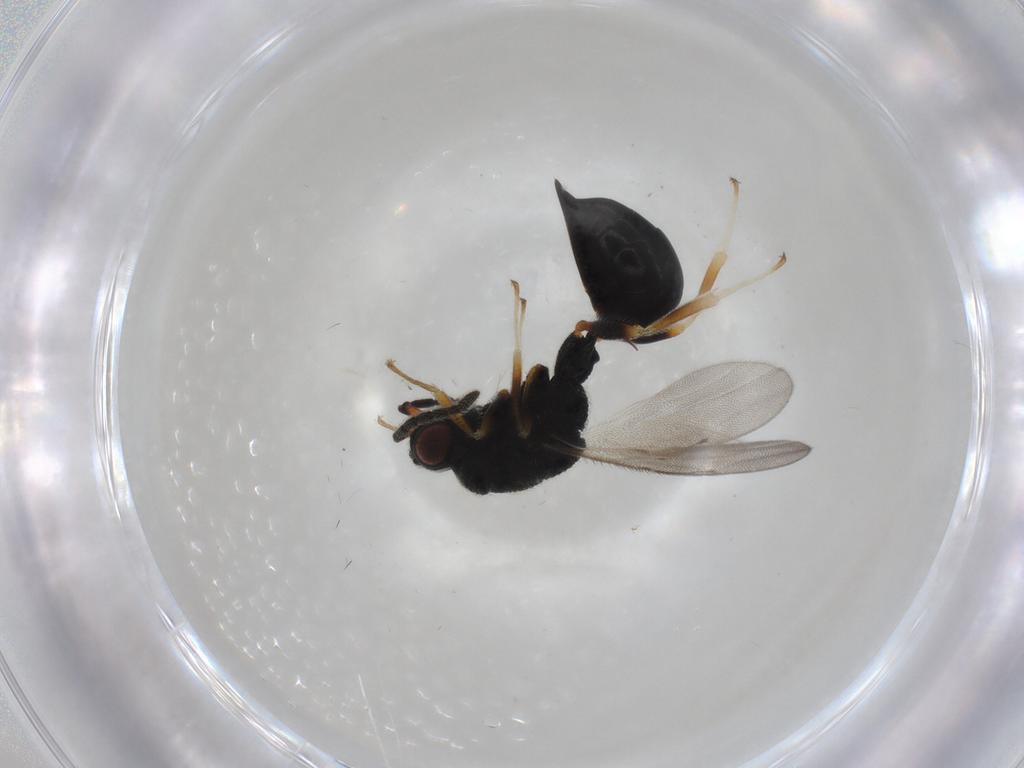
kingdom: Animalia
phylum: Arthropoda
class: Insecta
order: Hymenoptera
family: Eurytomidae
